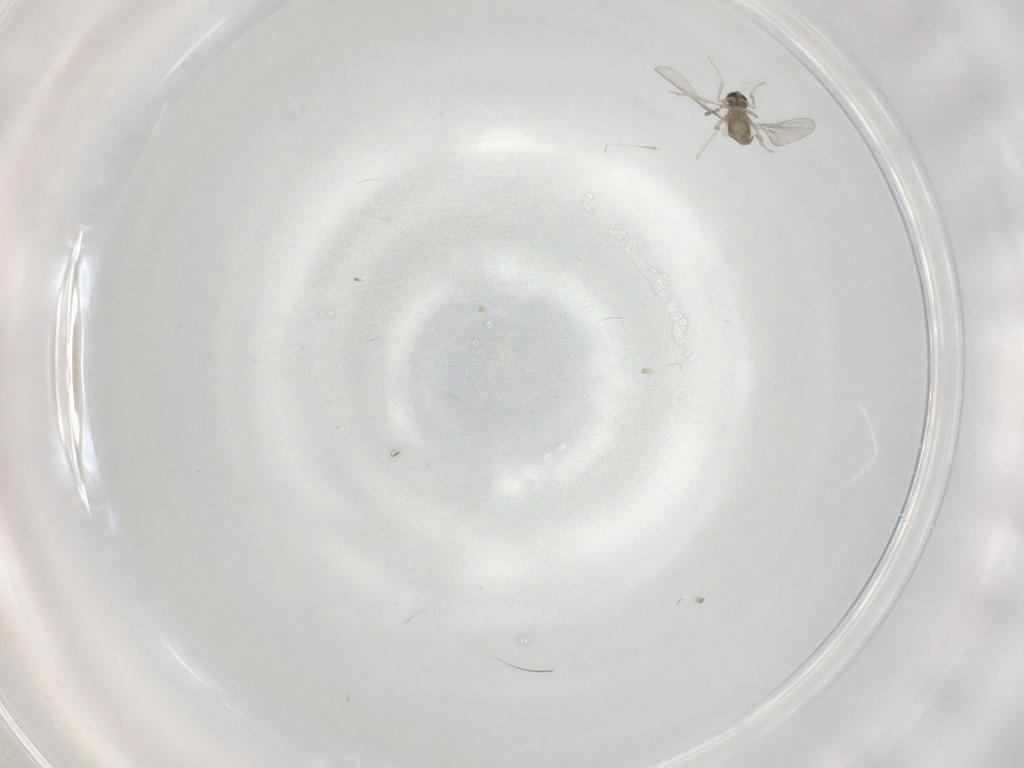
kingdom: Animalia
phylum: Arthropoda
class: Insecta
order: Diptera
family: Cecidomyiidae
